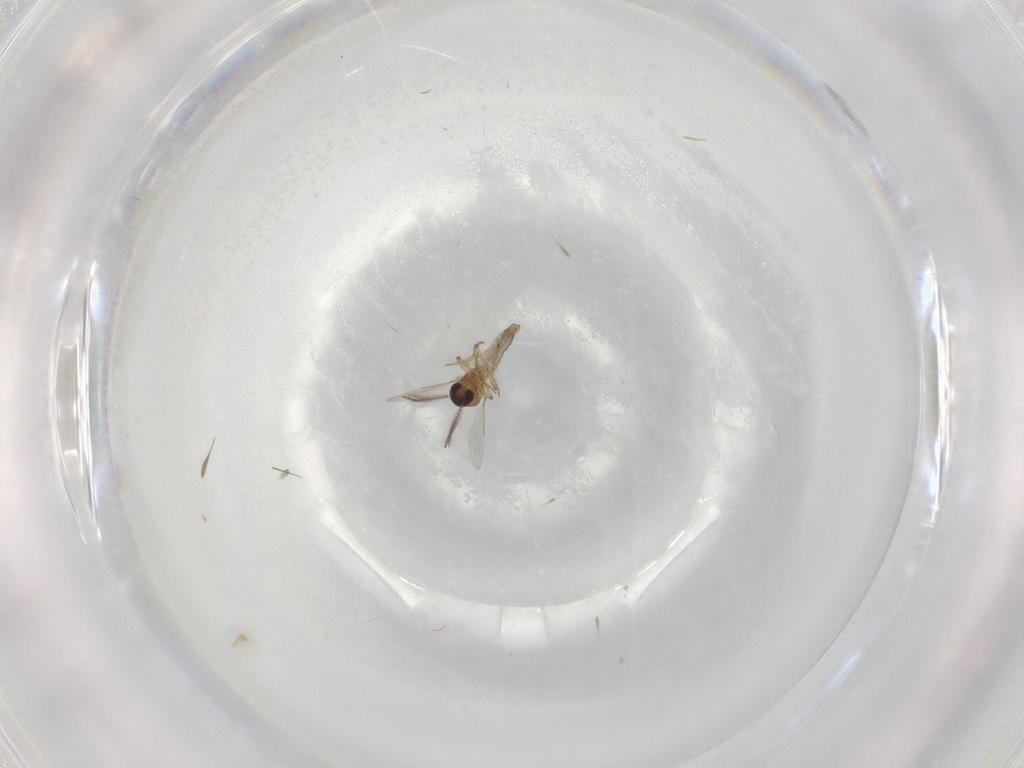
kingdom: Animalia
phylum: Arthropoda
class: Insecta
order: Diptera
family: Ceratopogonidae
